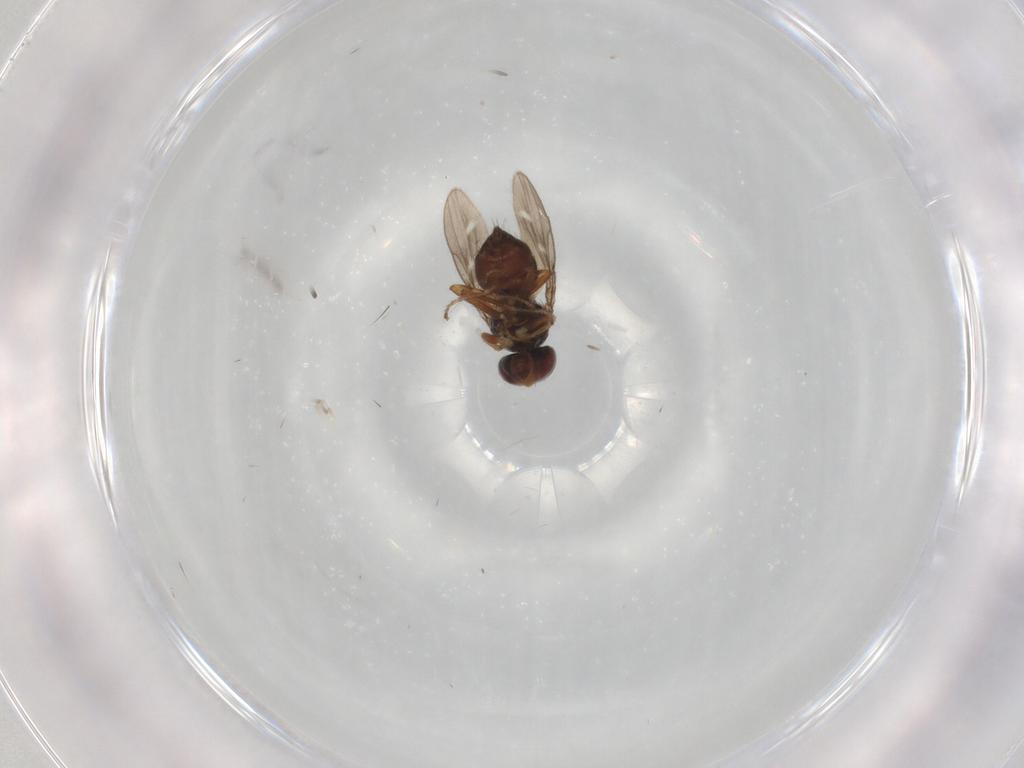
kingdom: Animalia
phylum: Arthropoda
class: Insecta
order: Diptera
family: Ephydridae
